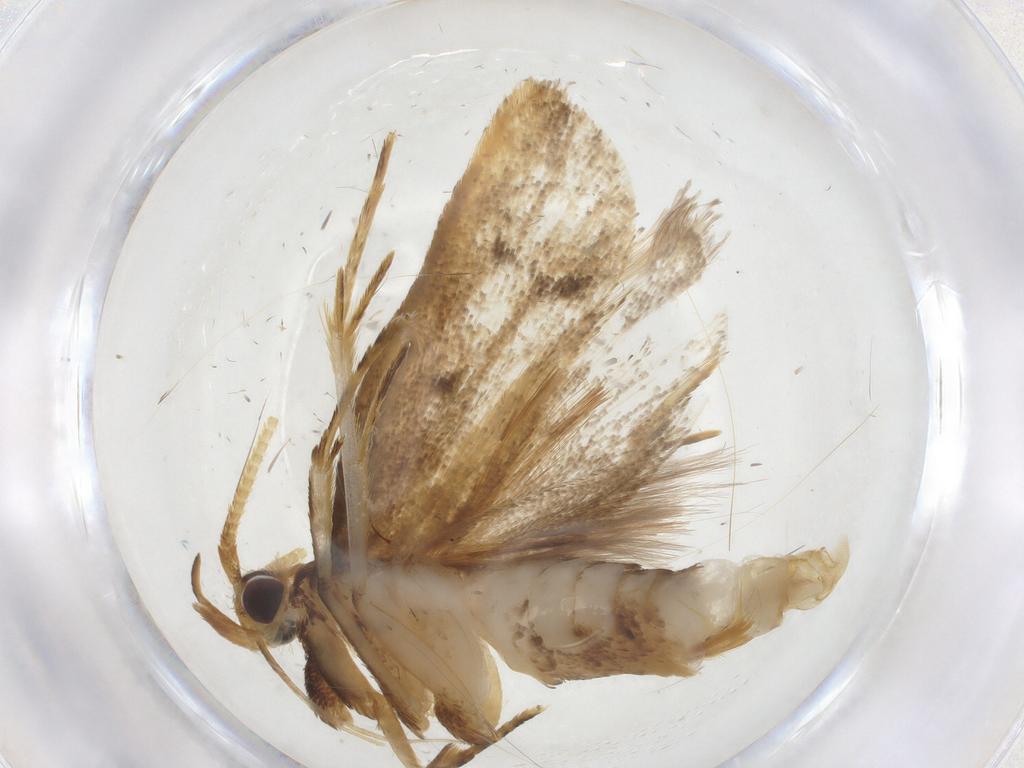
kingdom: Animalia
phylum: Arthropoda
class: Insecta
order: Lepidoptera
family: Lecithoceridae
